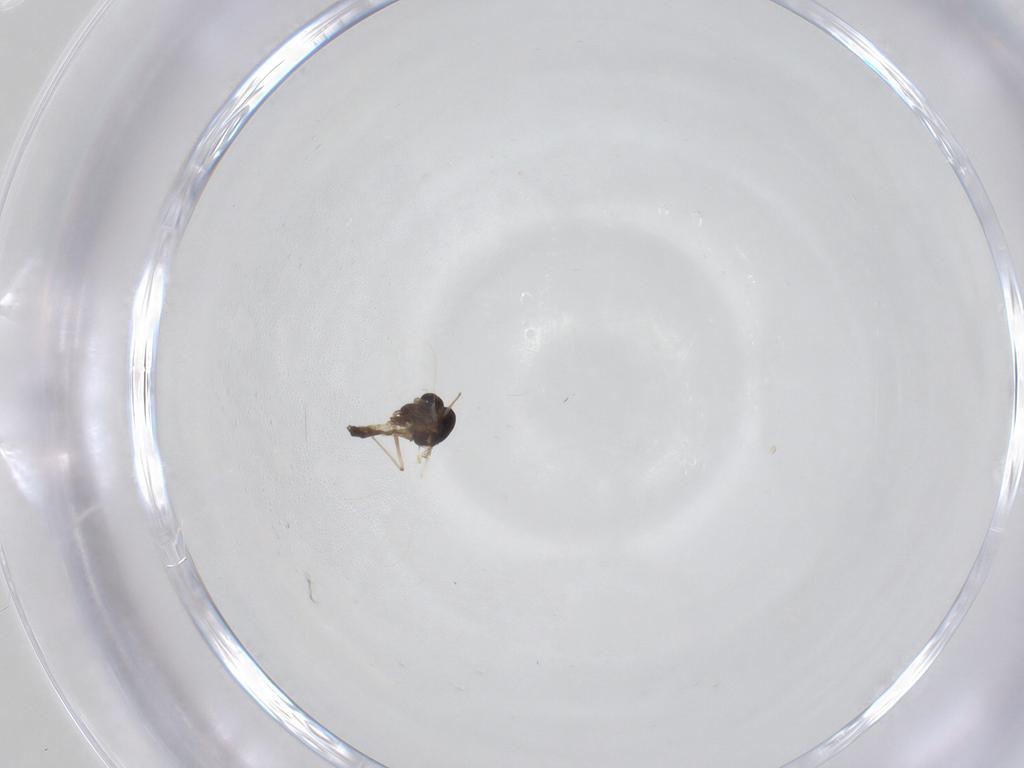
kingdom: Animalia
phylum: Arthropoda
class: Insecta
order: Diptera
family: Chironomidae
